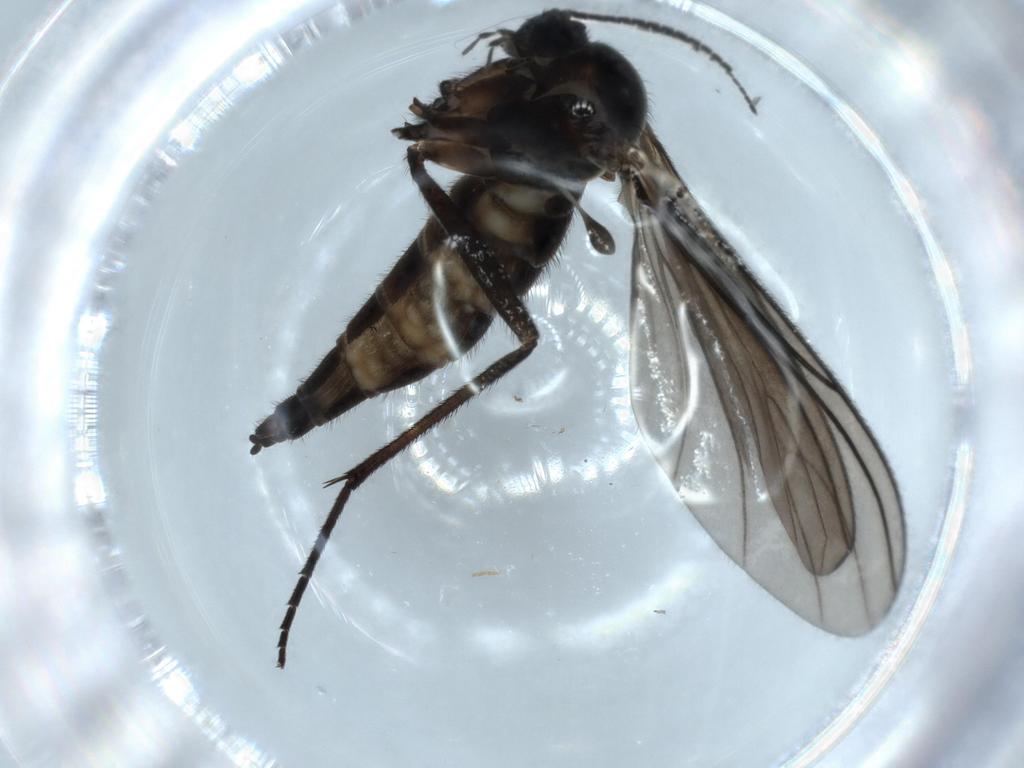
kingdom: Animalia
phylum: Arthropoda
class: Insecta
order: Diptera
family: Sciaridae
